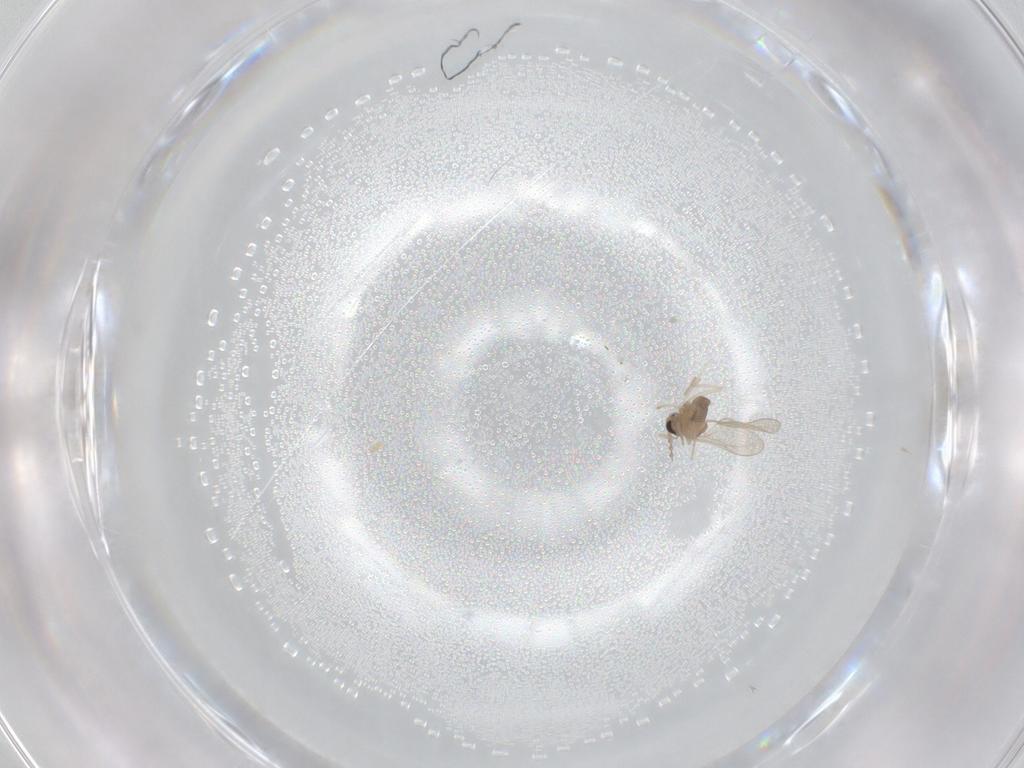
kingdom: Animalia
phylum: Arthropoda
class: Insecta
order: Diptera
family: Cecidomyiidae
